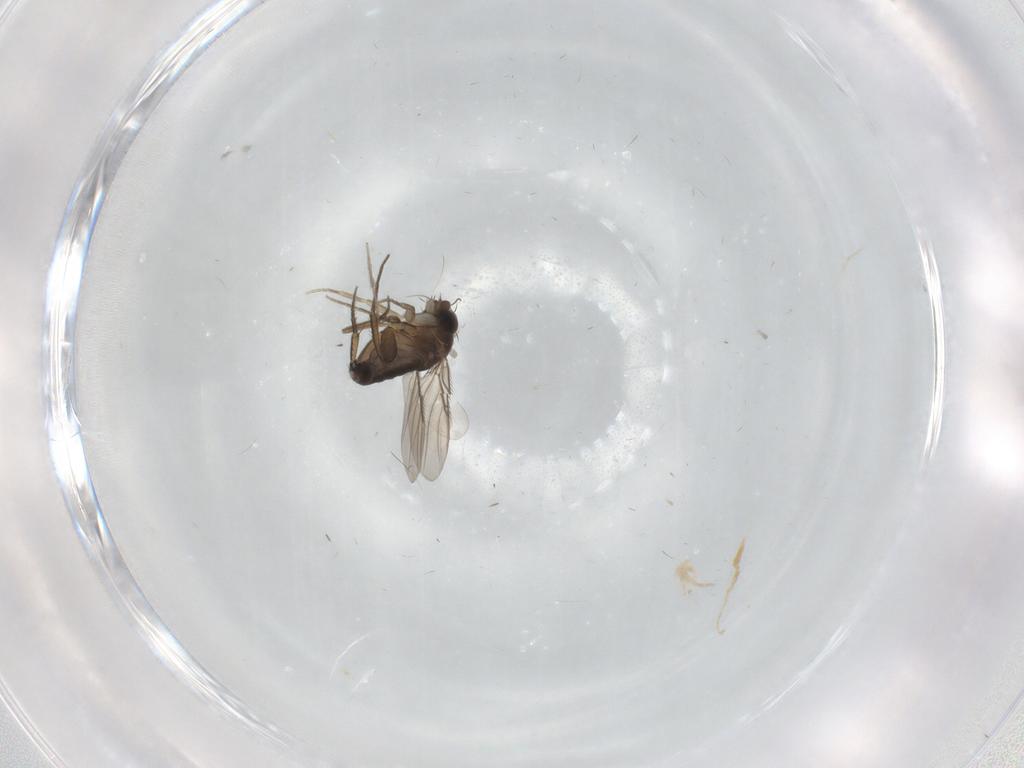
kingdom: Animalia
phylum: Arthropoda
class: Insecta
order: Diptera
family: Phoridae
